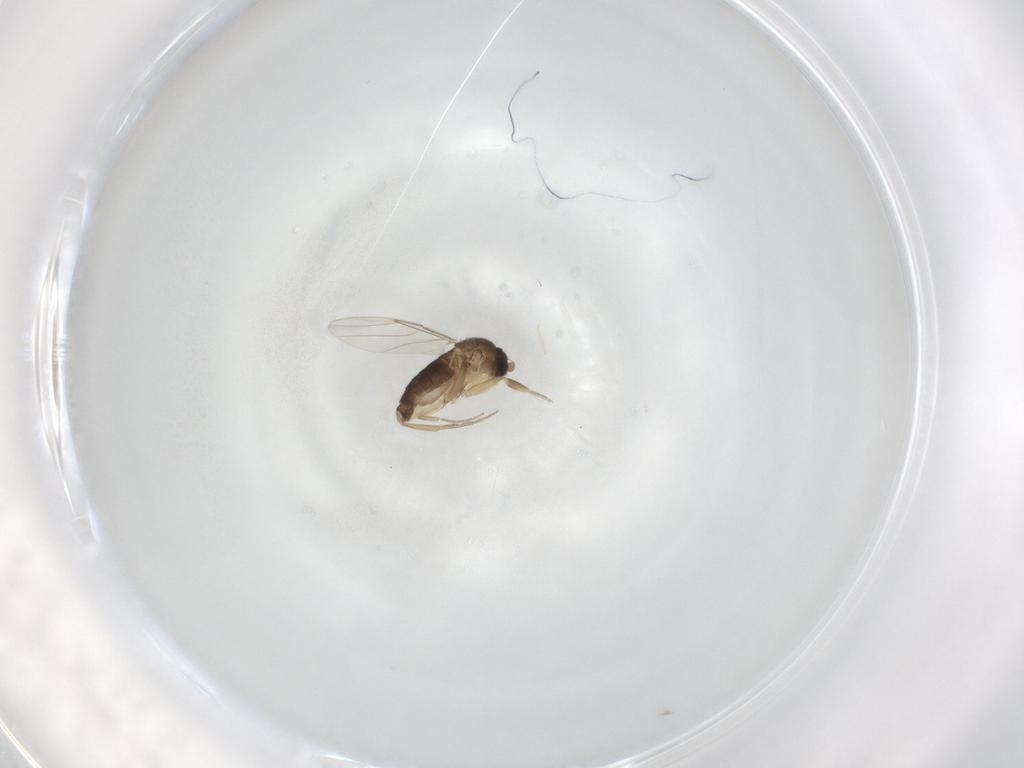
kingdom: Animalia
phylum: Arthropoda
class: Insecta
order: Diptera
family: Phoridae
